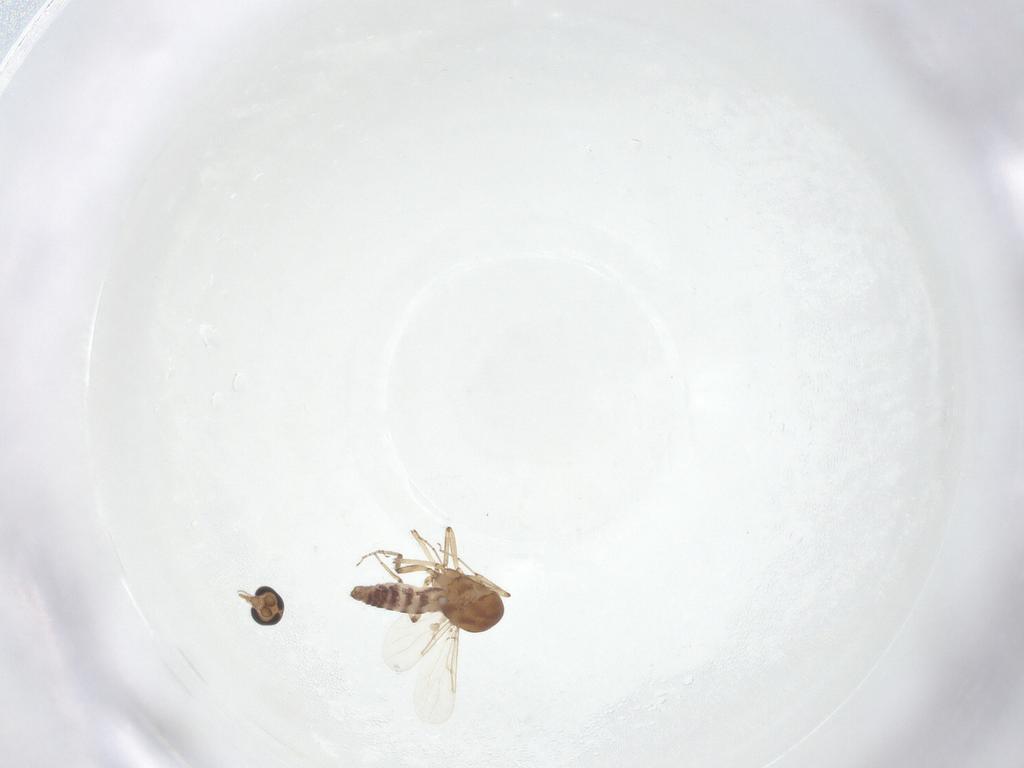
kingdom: Animalia
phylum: Arthropoda
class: Insecta
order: Diptera
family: Ceratopogonidae
